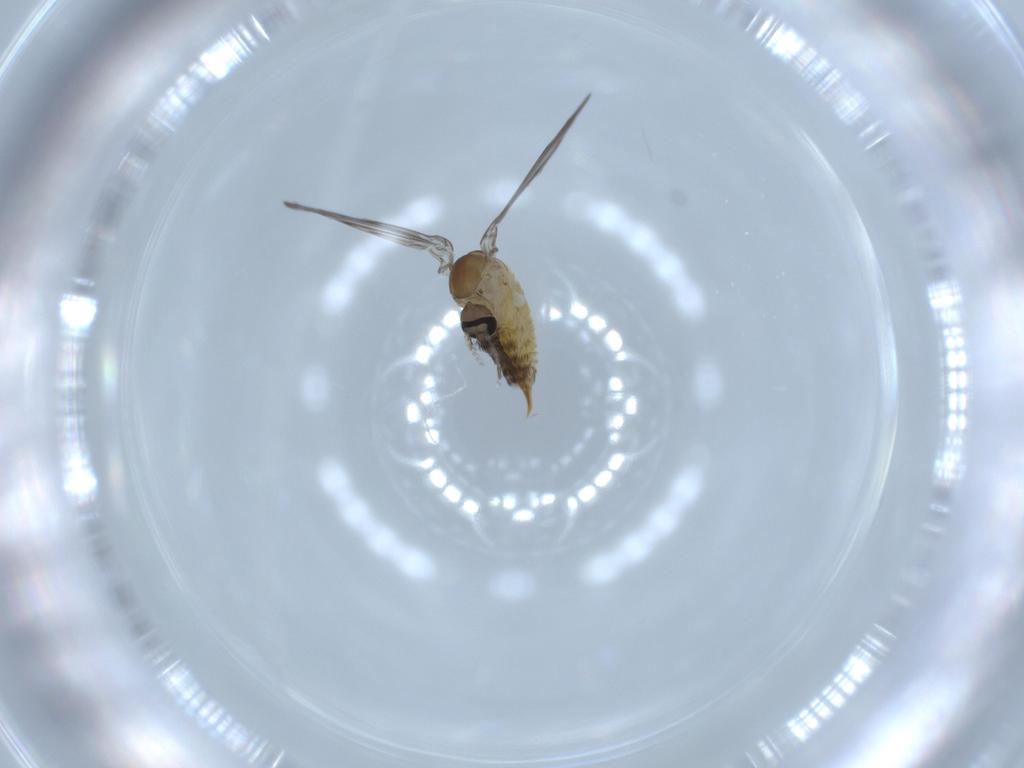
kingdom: Animalia
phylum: Arthropoda
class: Insecta
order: Diptera
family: Psychodidae
